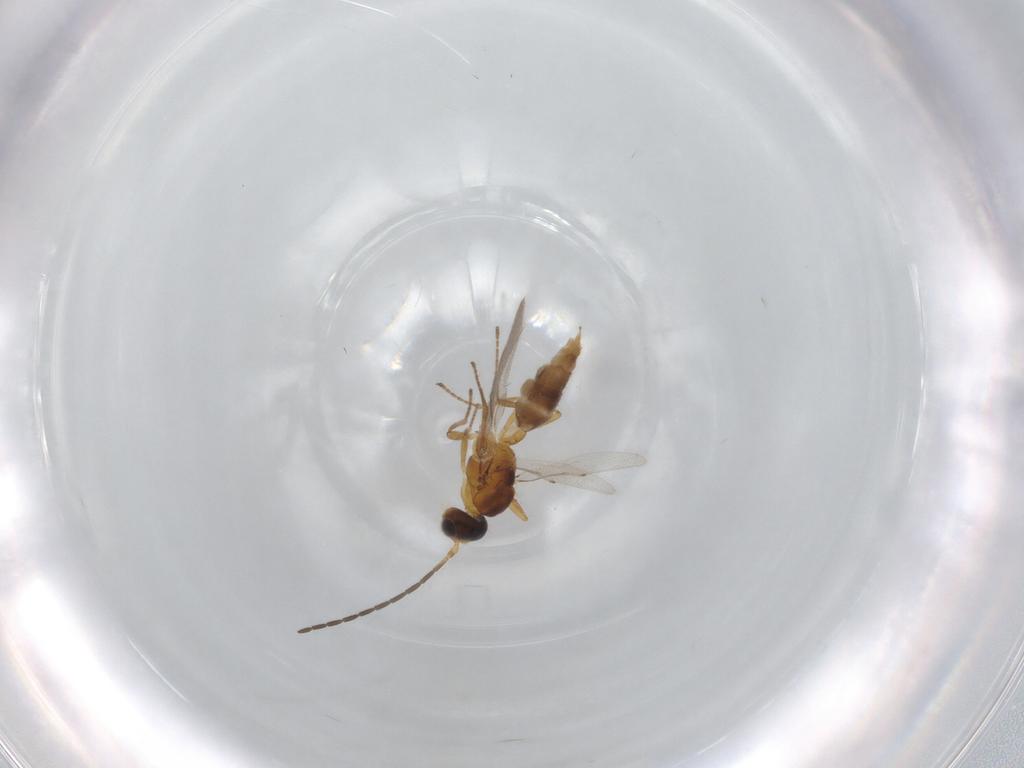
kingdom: Animalia
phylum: Arthropoda
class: Insecta
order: Hymenoptera
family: Braconidae
